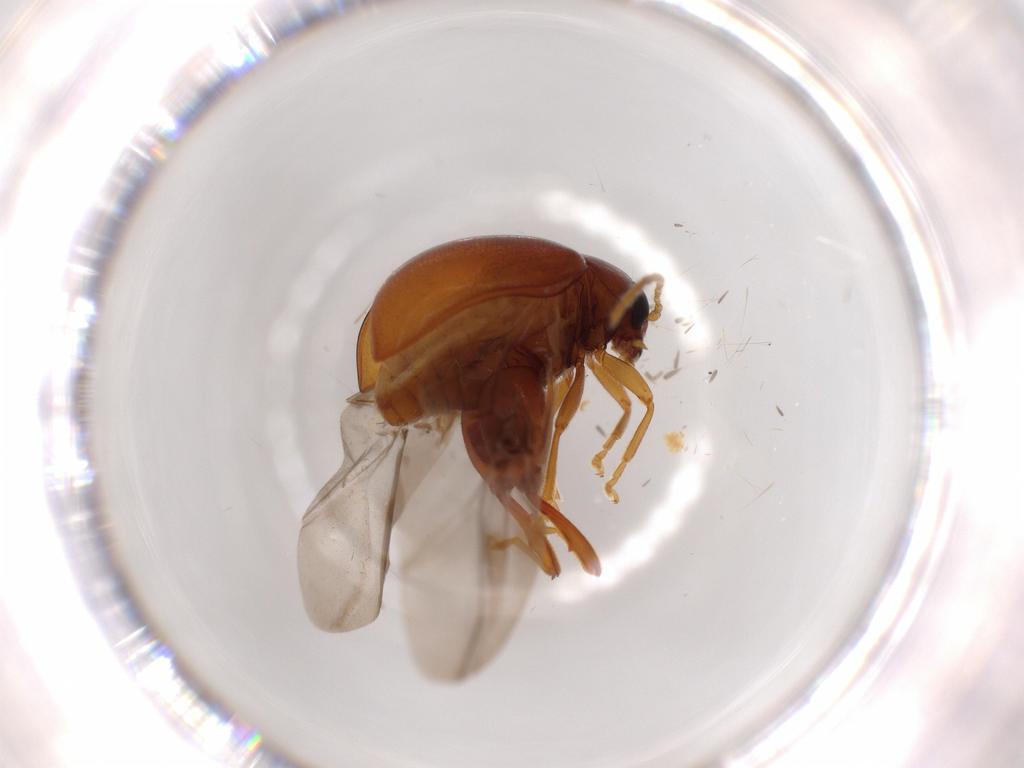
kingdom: Animalia
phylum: Arthropoda
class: Insecta
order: Coleoptera
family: Chrysomelidae
